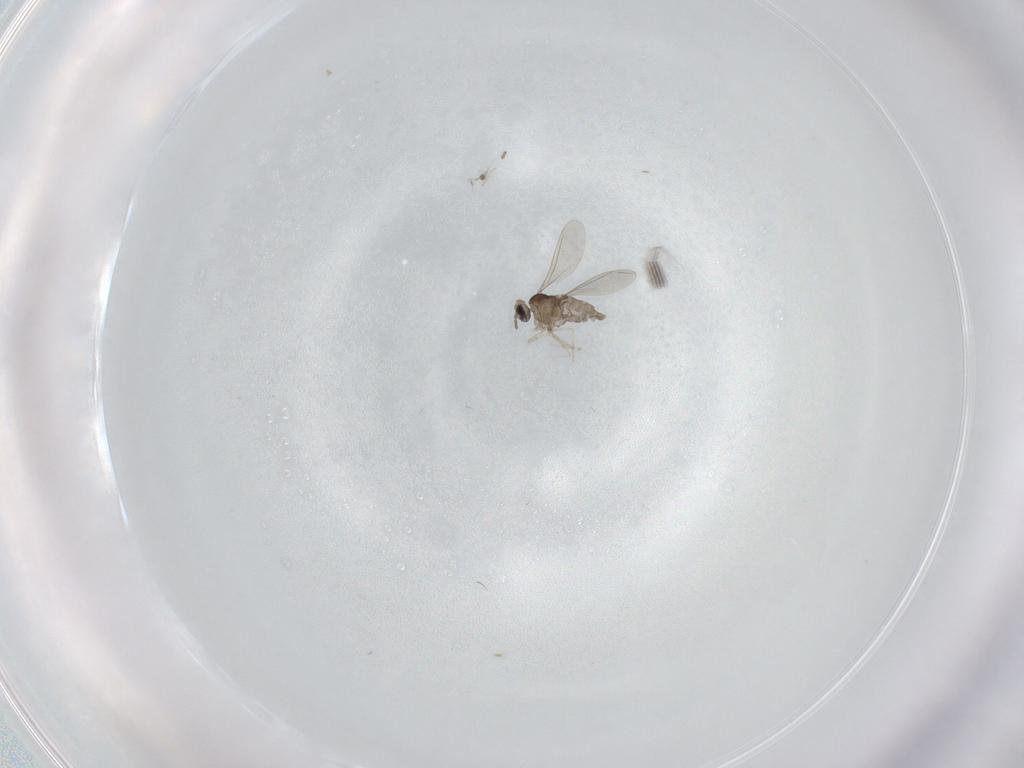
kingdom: Animalia
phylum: Arthropoda
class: Insecta
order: Diptera
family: Cecidomyiidae
